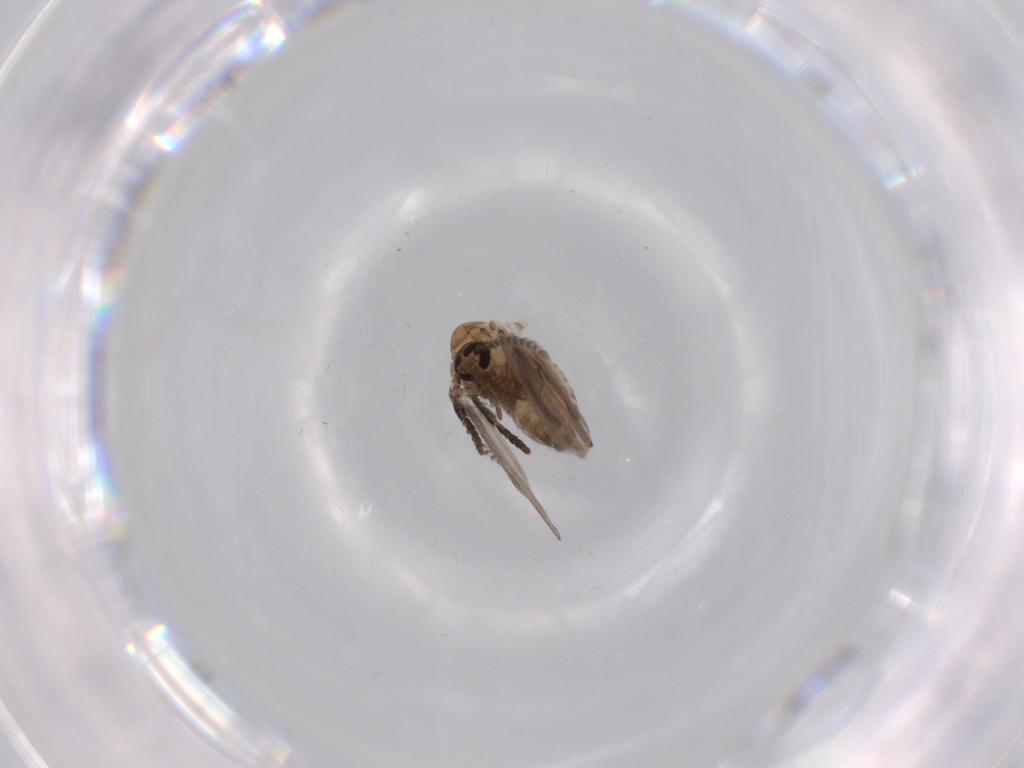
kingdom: Animalia
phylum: Arthropoda
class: Insecta
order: Diptera
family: Psychodidae
